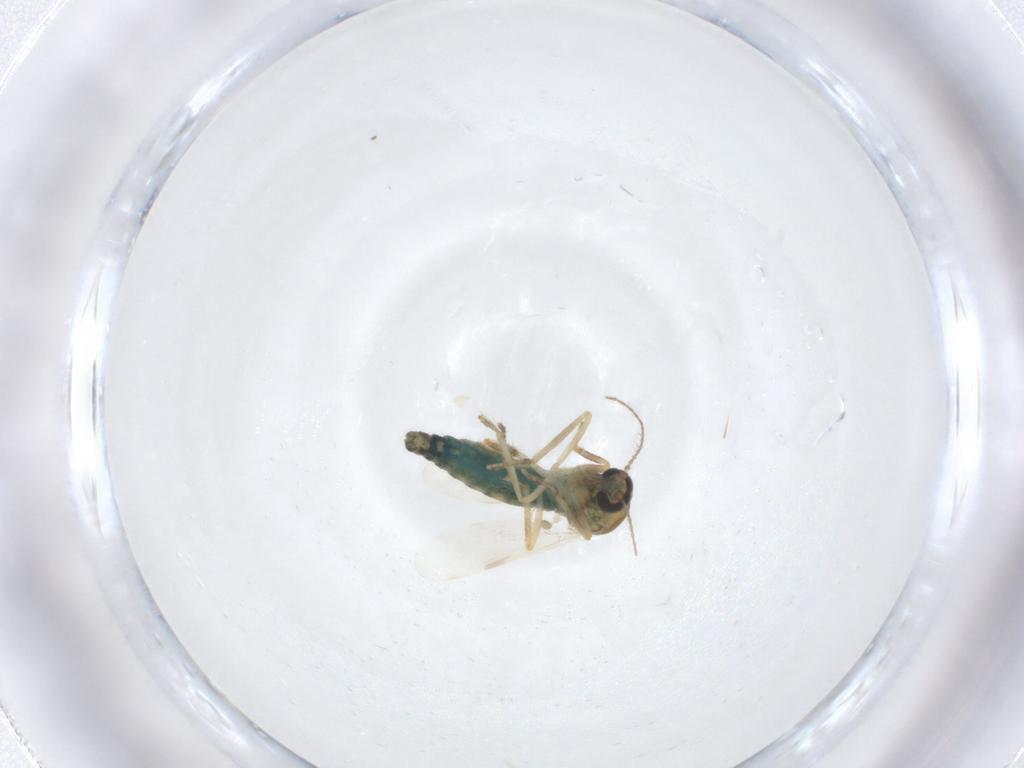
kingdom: Animalia
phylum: Arthropoda
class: Insecta
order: Diptera
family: Ceratopogonidae
